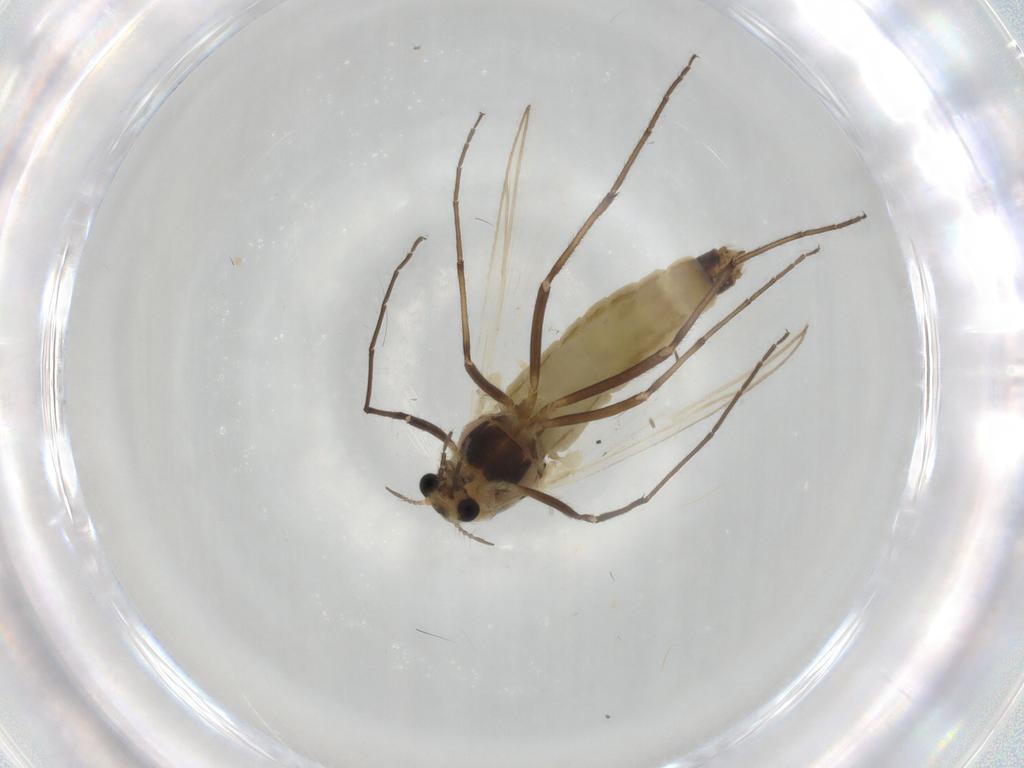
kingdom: Animalia
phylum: Arthropoda
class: Insecta
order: Diptera
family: Chironomidae
